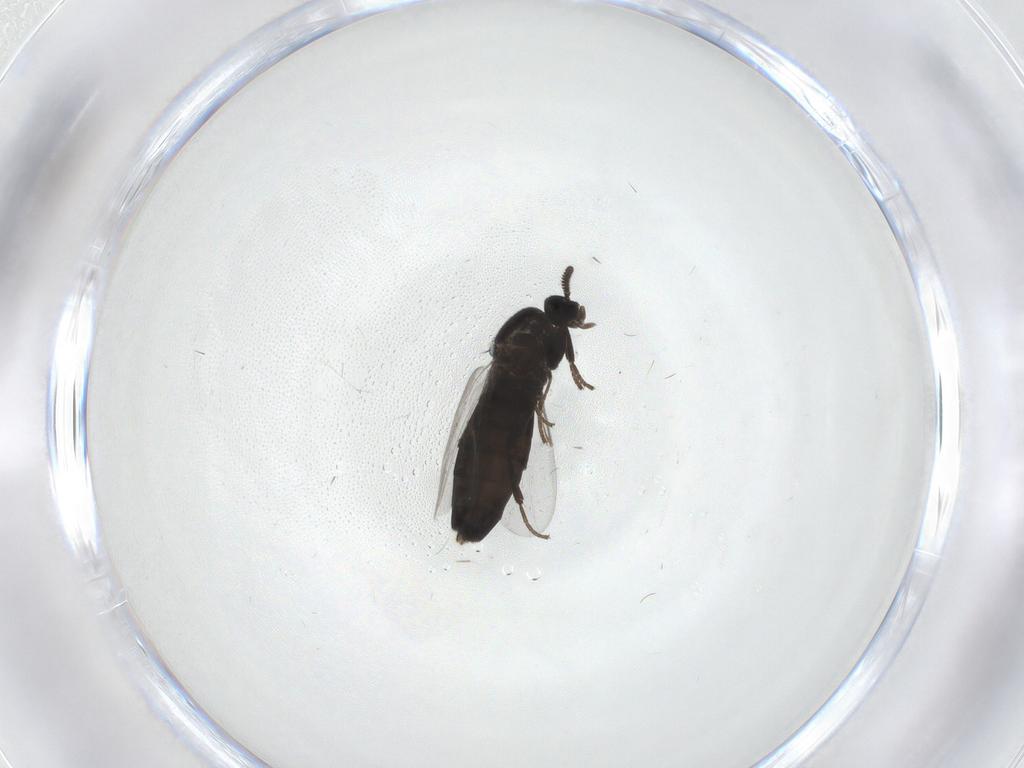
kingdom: Animalia
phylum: Arthropoda
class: Insecta
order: Diptera
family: Scatopsidae
